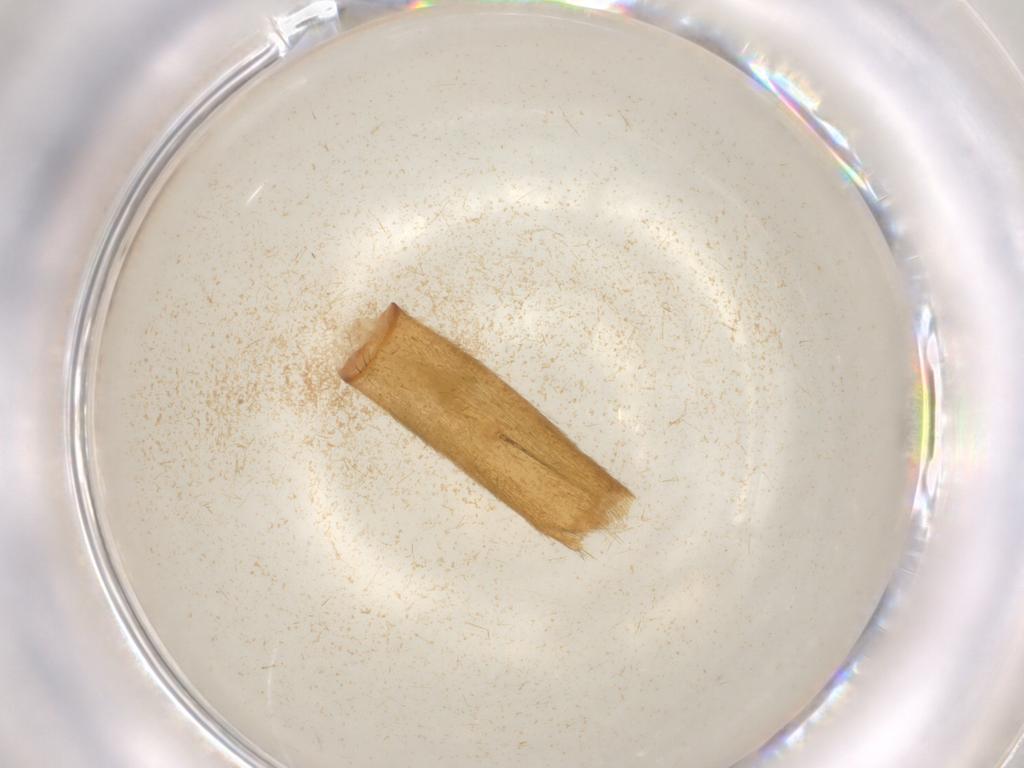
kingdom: Animalia
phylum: Arthropoda
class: Arachnida
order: Araneae
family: Trechaleidae
